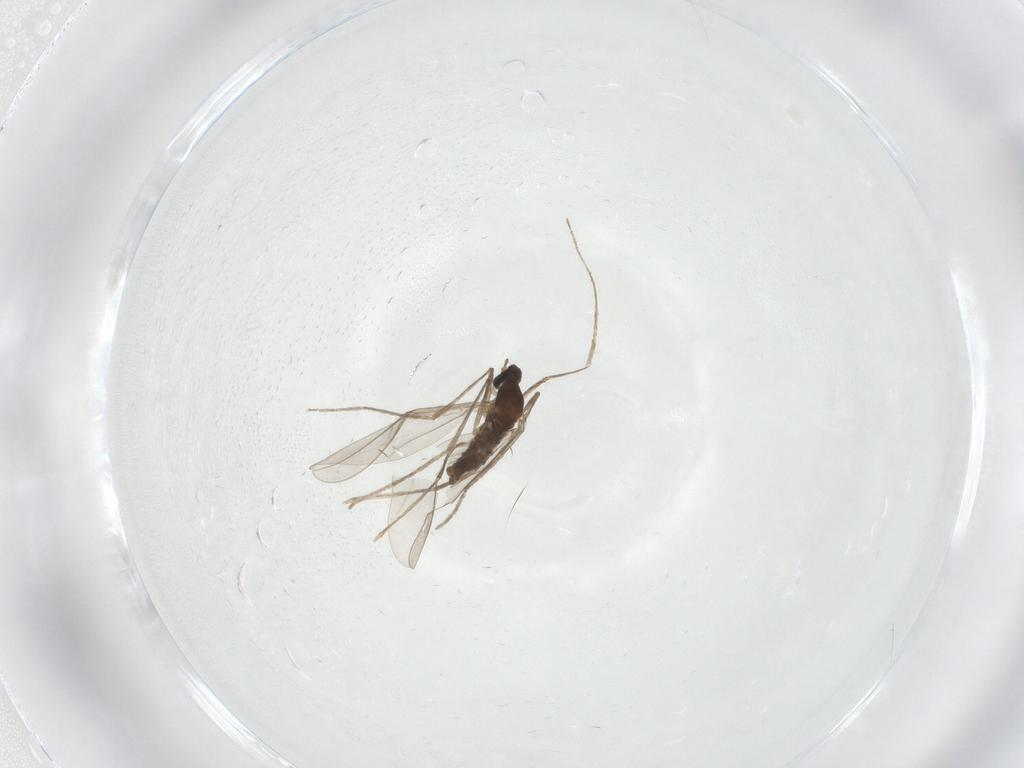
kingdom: Animalia
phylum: Arthropoda
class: Insecta
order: Diptera
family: Cecidomyiidae
